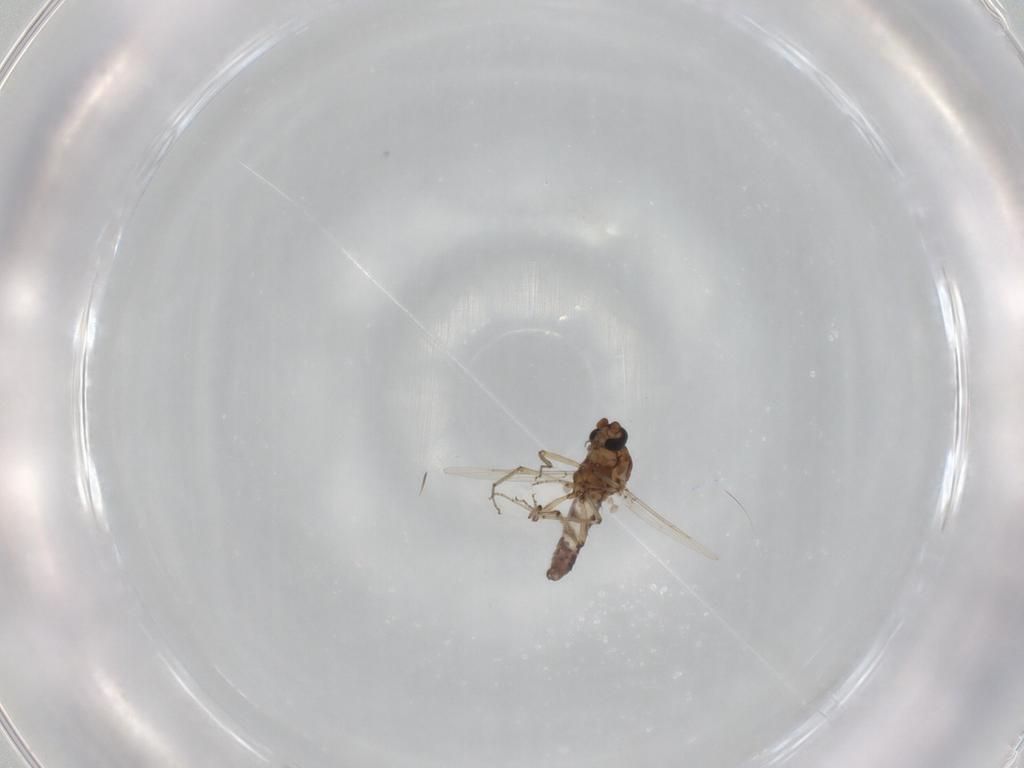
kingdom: Animalia
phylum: Arthropoda
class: Insecta
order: Diptera
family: Ceratopogonidae
